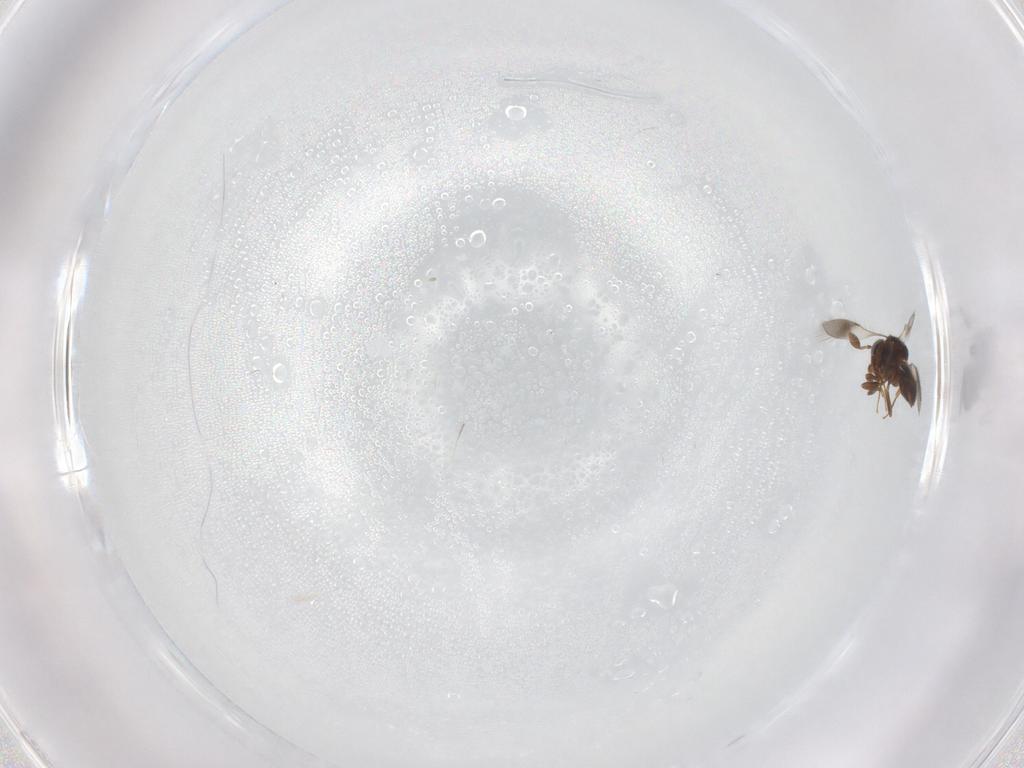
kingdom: Animalia
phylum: Arthropoda
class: Insecta
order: Hymenoptera
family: Scelionidae
